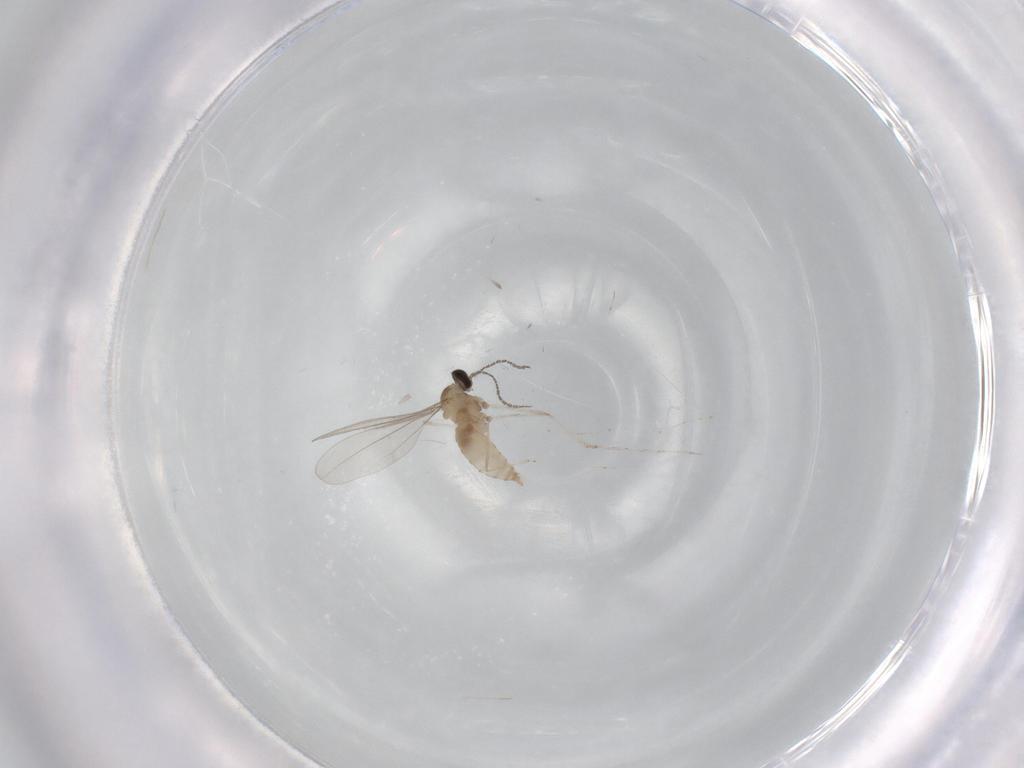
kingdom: Animalia
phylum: Arthropoda
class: Insecta
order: Diptera
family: Cecidomyiidae
